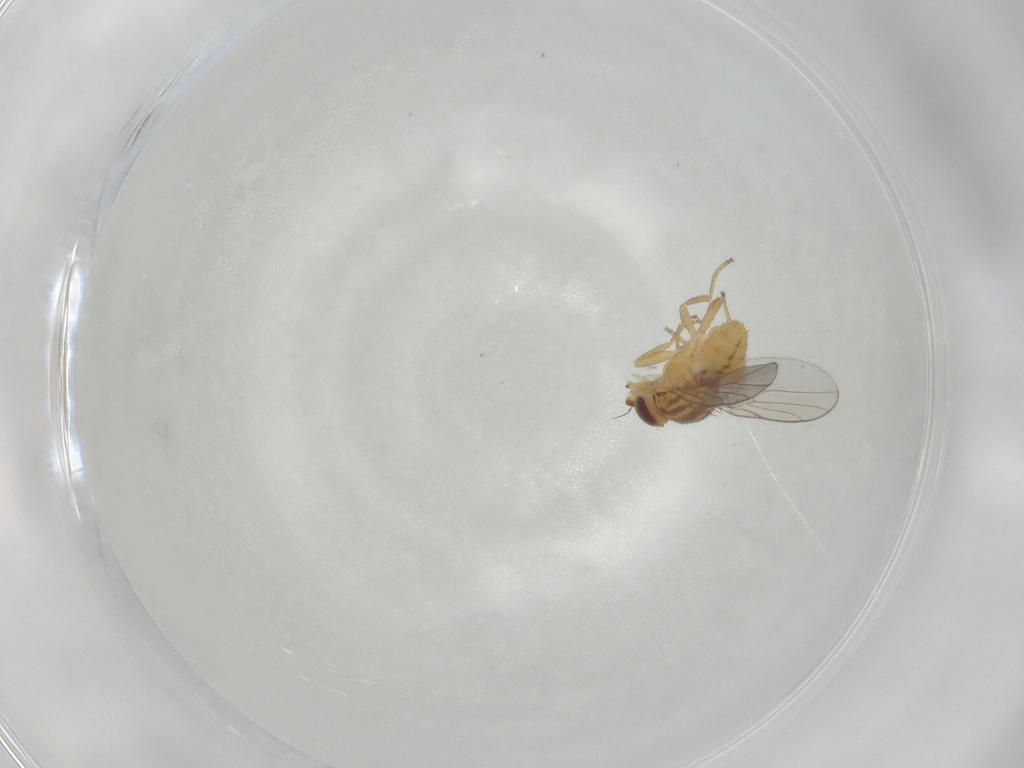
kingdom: Animalia
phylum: Arthropoda
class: Insecta
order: Diptera
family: Chloropidae
